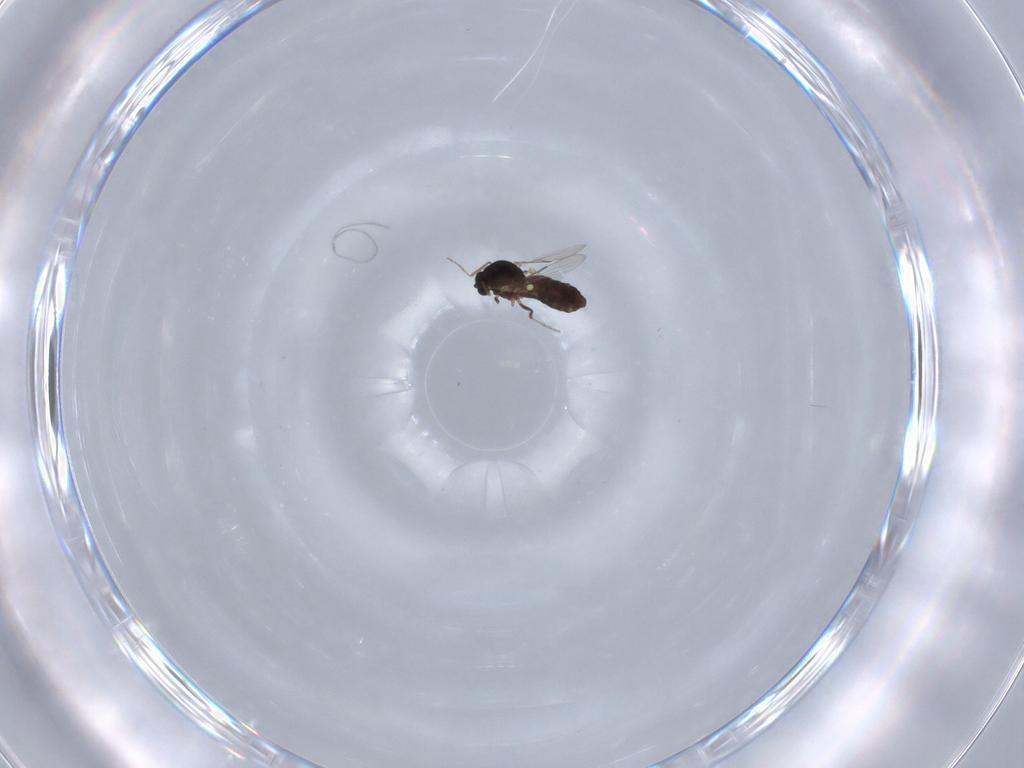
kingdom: Animalia
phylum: Arthropoda
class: Insecta
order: Diptera
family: Ceratopogonidae
